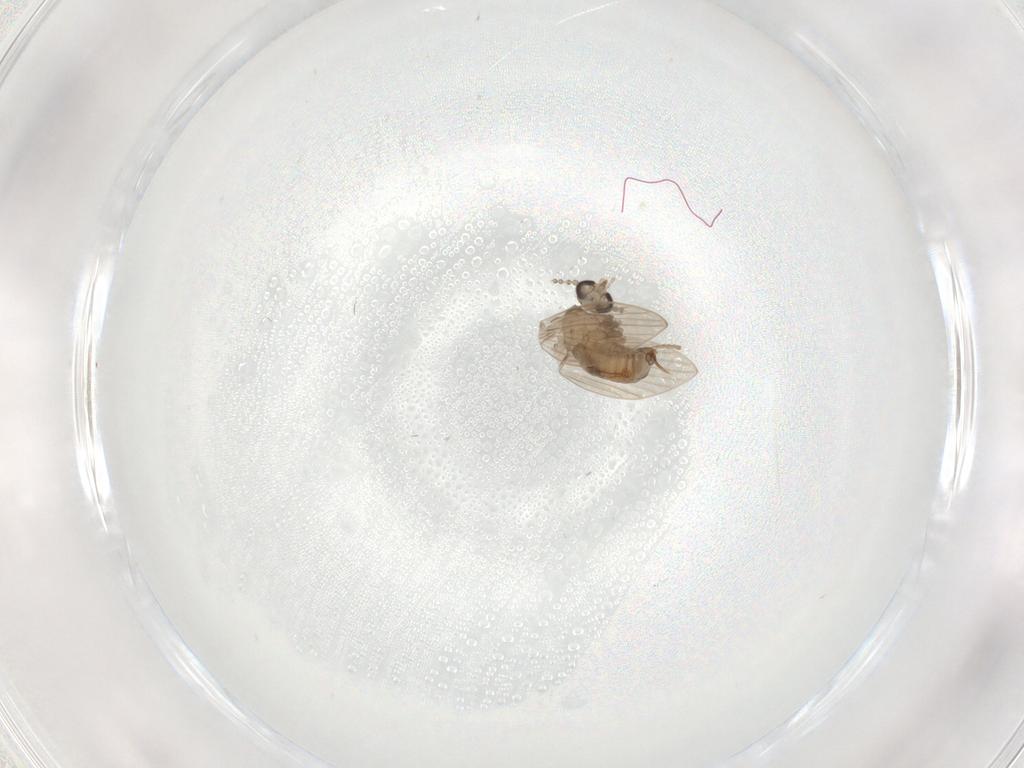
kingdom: Animalia
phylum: Arthropoda
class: Insecta
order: Diptera
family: Psychodidae
